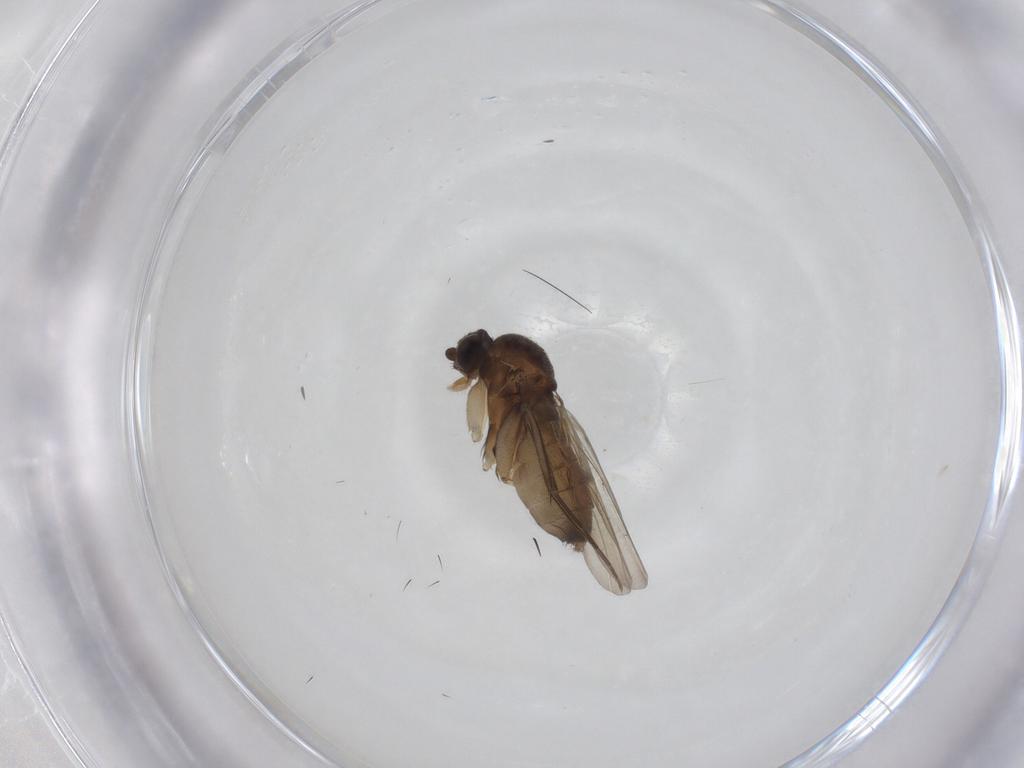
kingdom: Animalia
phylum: Arthropoda
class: Insecta
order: Diptera
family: Phoridae
